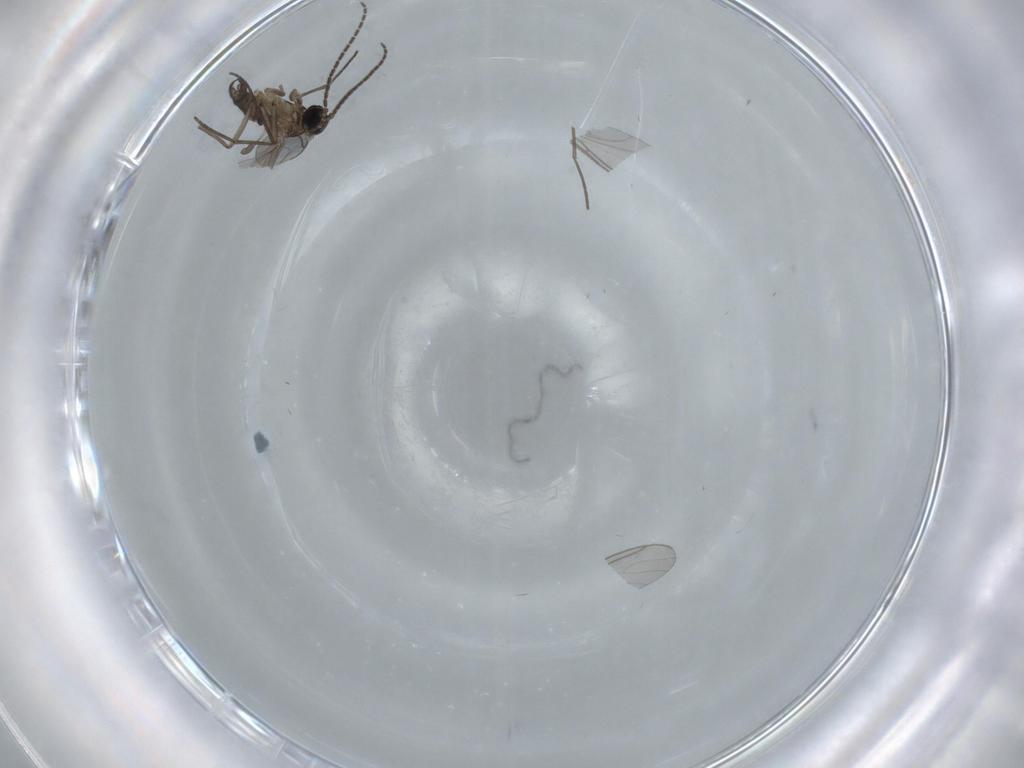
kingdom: Animalia
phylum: Arthropoda
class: Insecta
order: Diptera
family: Sciaridae
